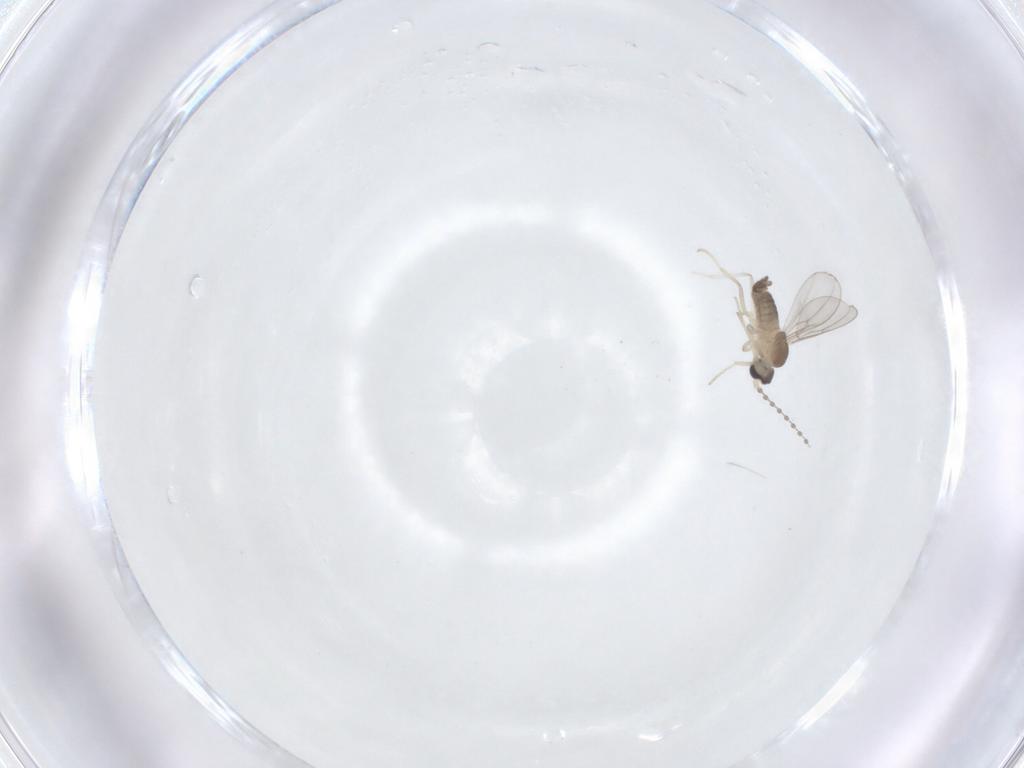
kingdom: Animalia
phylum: Arthropoda
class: Insecta
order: Diptera
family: Cecidomyiidae
